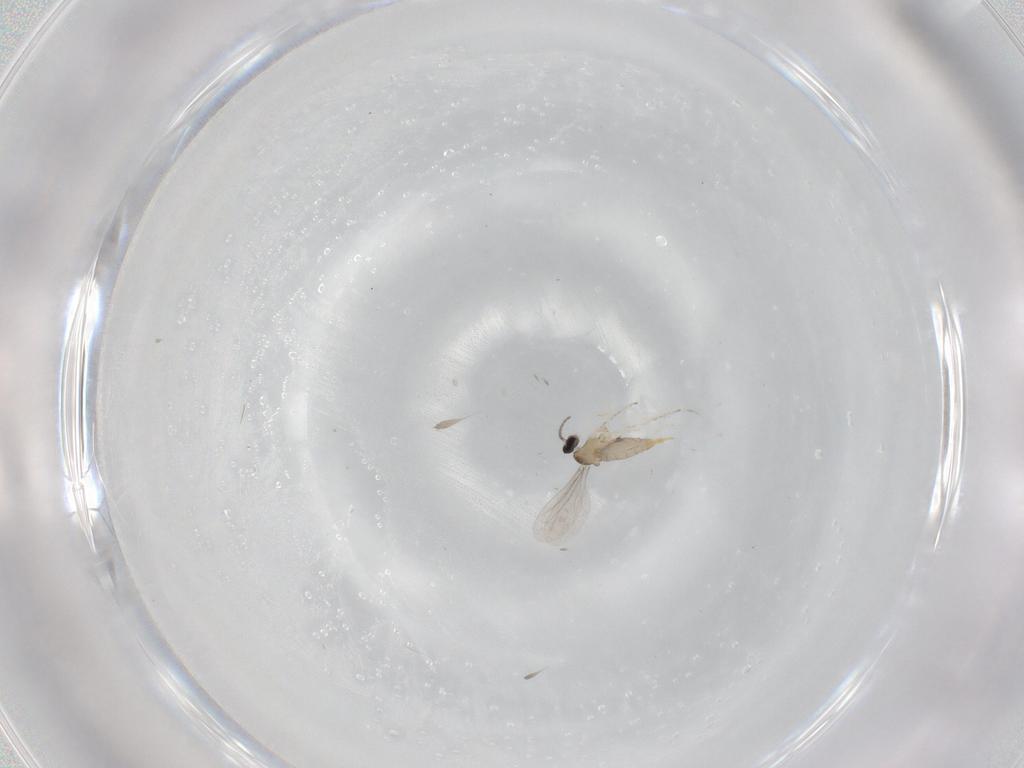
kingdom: Animalia
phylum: Arthropoda
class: Insecta
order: Diptera
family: Cecidomyiidae
